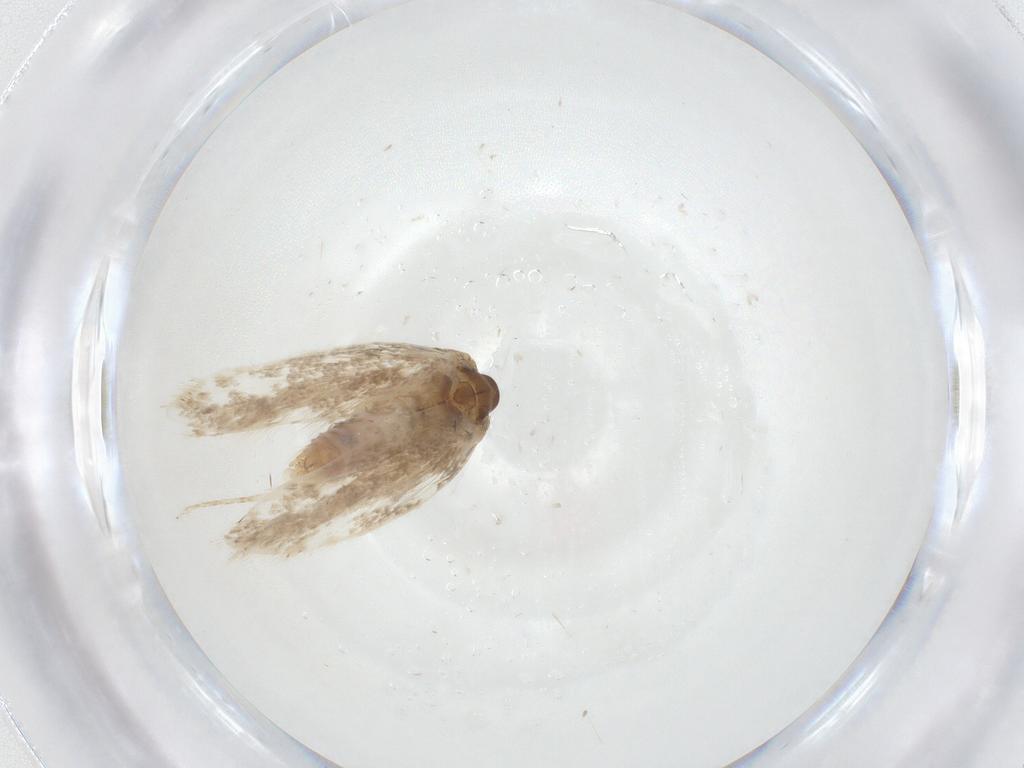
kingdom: Animalia
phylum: Arthropoda
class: Insecta
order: Lepidoptera
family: Cosmopterigidae
